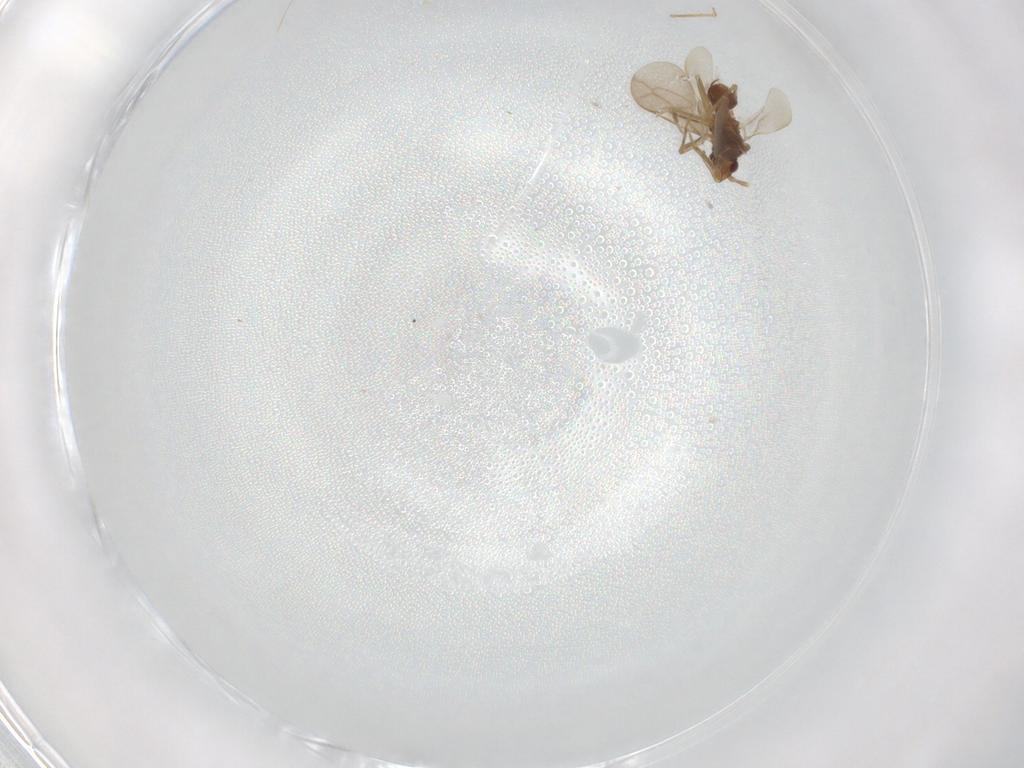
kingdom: Animalia
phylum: Arthropoda
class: Insecta
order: Hemiptera
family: Ceratocombidae
